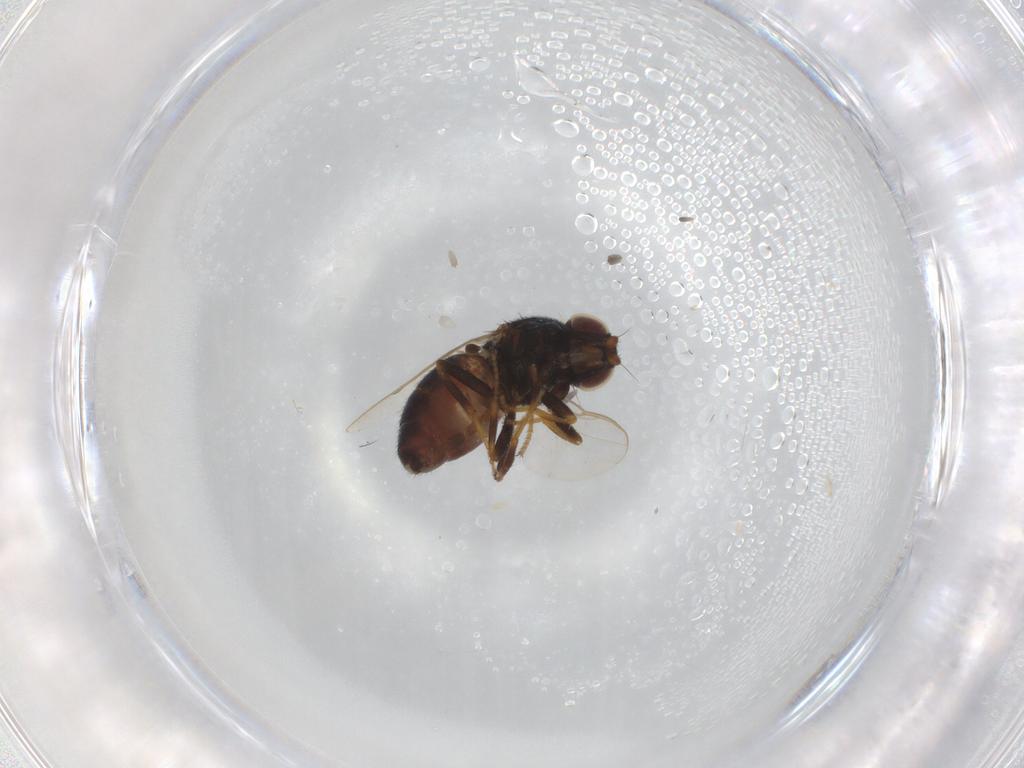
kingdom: Animalia
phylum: Arthropoda
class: Insecta
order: Diptera
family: Chloropidae
